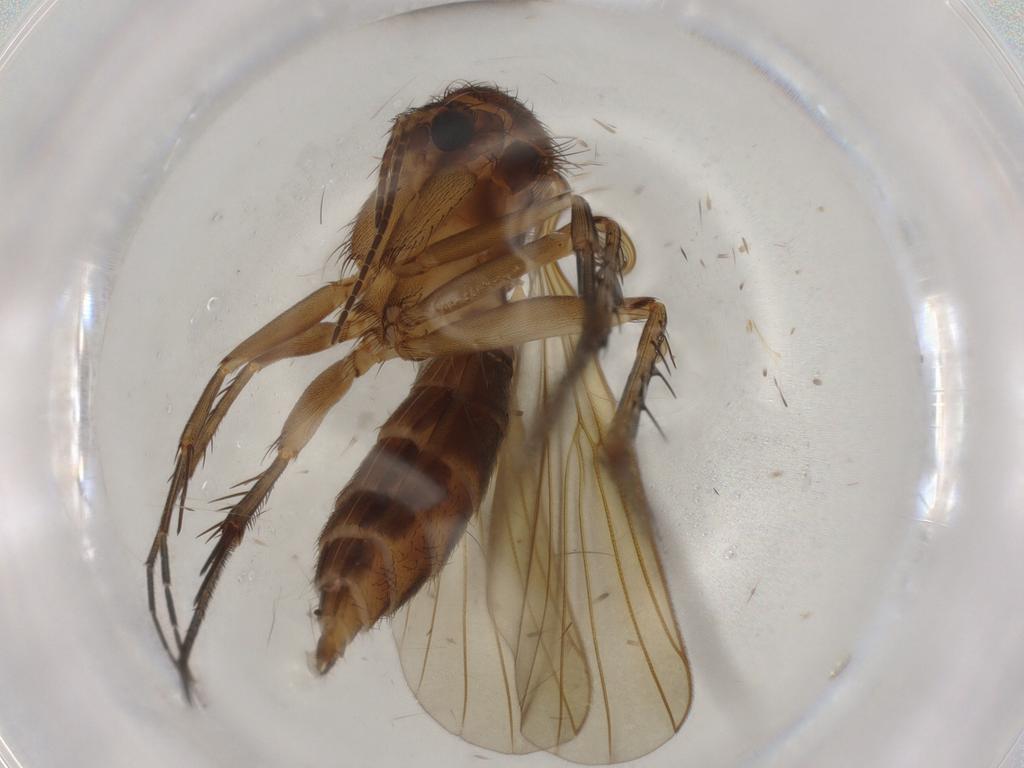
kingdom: Animalia
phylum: Arthropoda
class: Insecta
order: Diptera
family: Mycetophilidae
